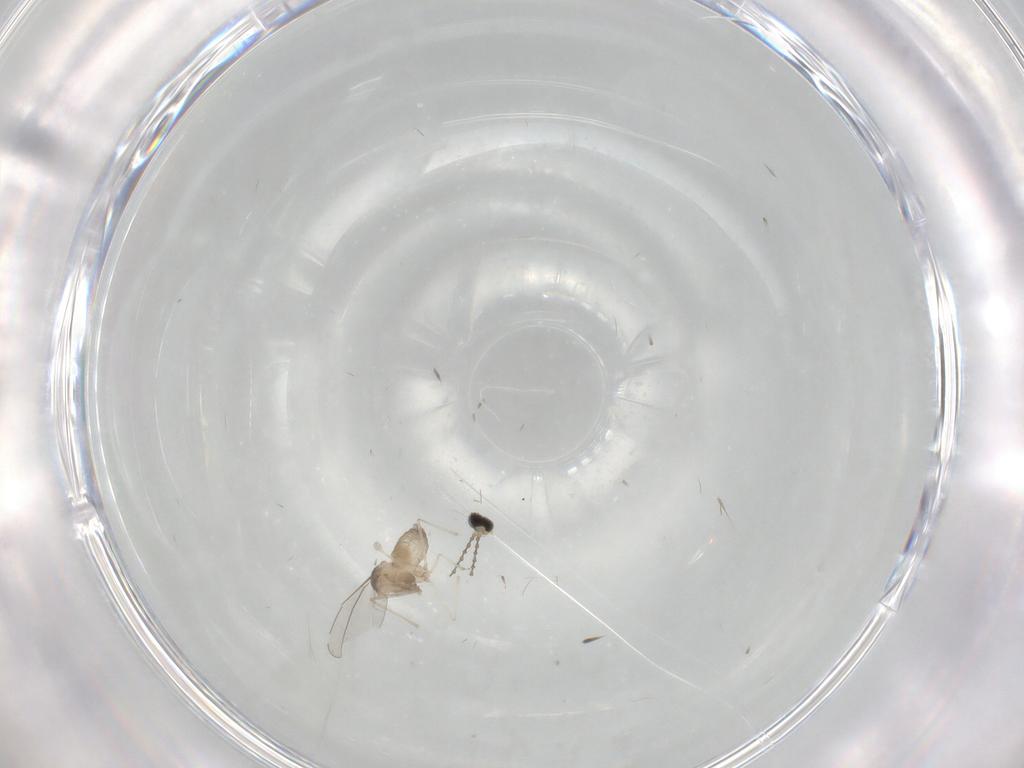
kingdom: Animalia
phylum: Arthropoda
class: Insecta
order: Diptera
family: Cecidomyiidae
